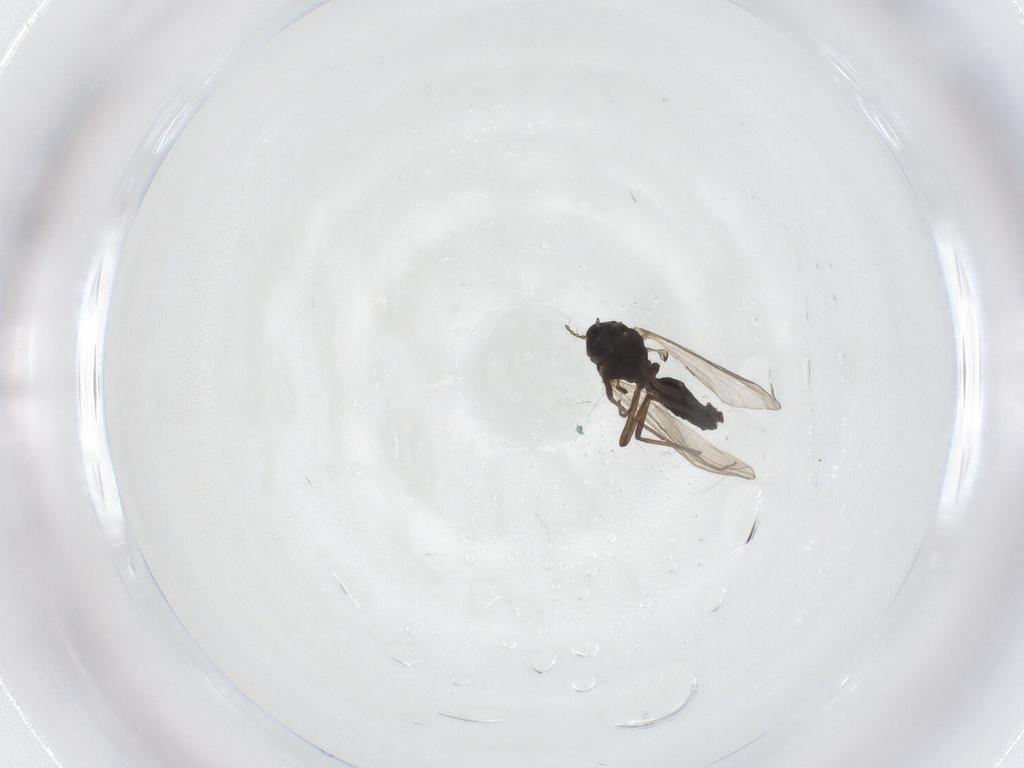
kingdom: Animalia
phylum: Arthropoda
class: Insecta
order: Diptera
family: Chironomidae
